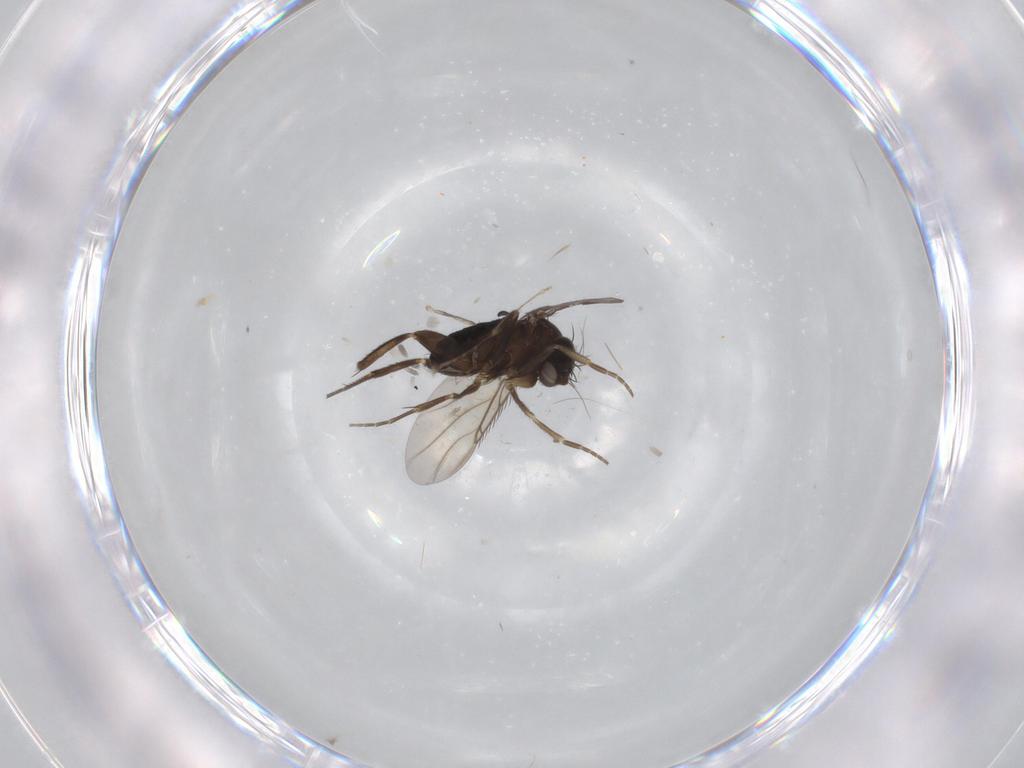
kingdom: Animalia
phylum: Arthropoda
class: Insecta
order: Diptera
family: Phoridae
